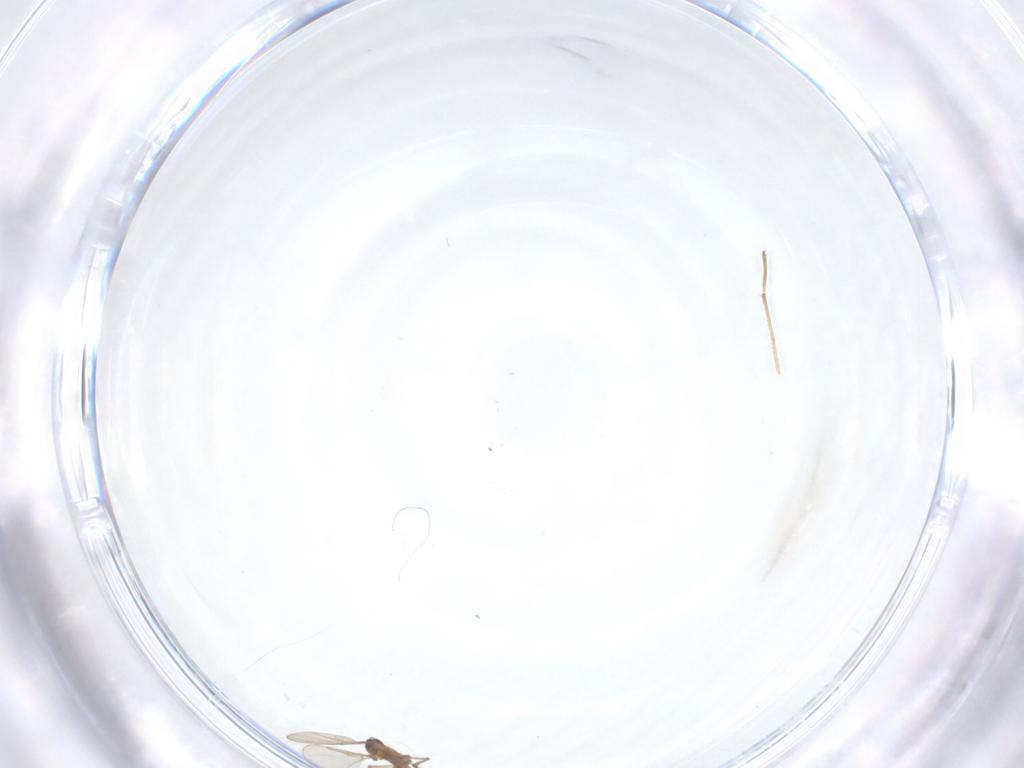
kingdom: Animalia
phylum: Arthropoda
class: Insecta
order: Diptera
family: Cecidomyiidae
